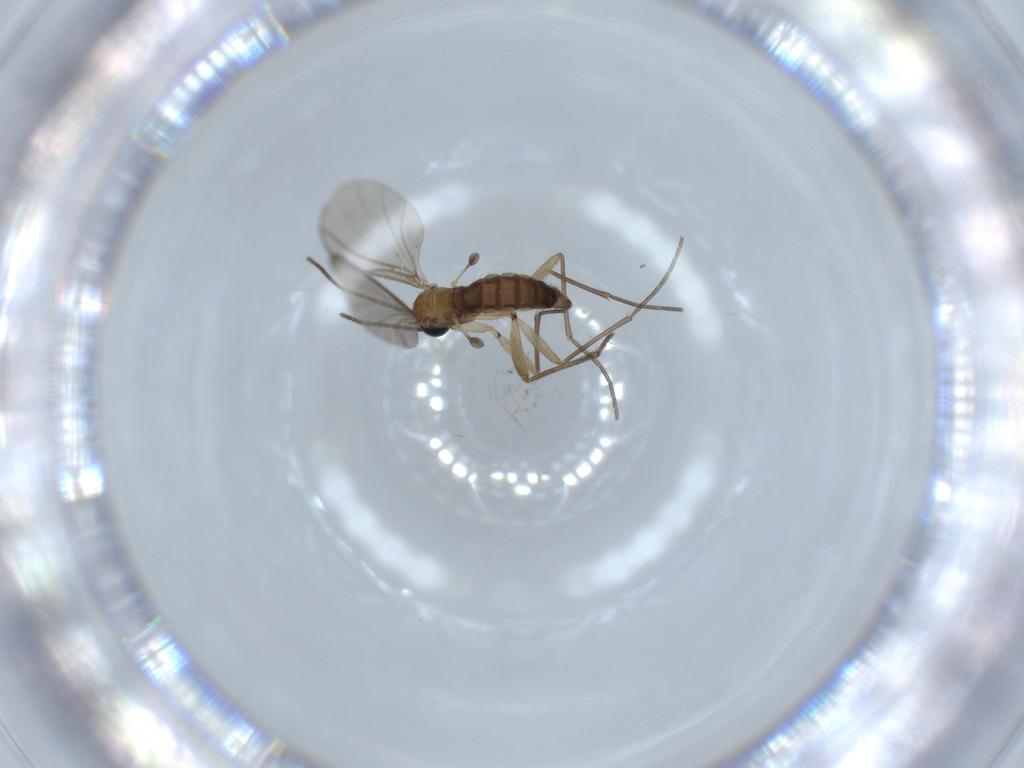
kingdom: Animalia
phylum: Arthropoda
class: Insecta
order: Diptera
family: Sciaridae
